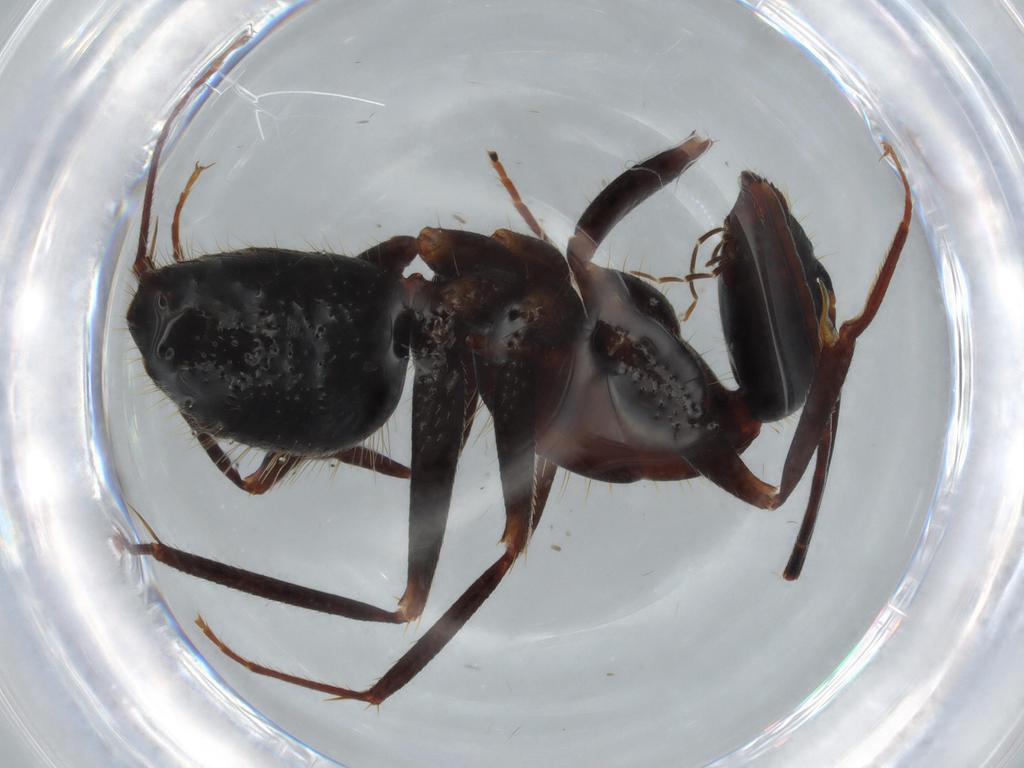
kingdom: Animalia
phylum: Arthropoda
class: Insecta
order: Hymenoptera
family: Formicidae
